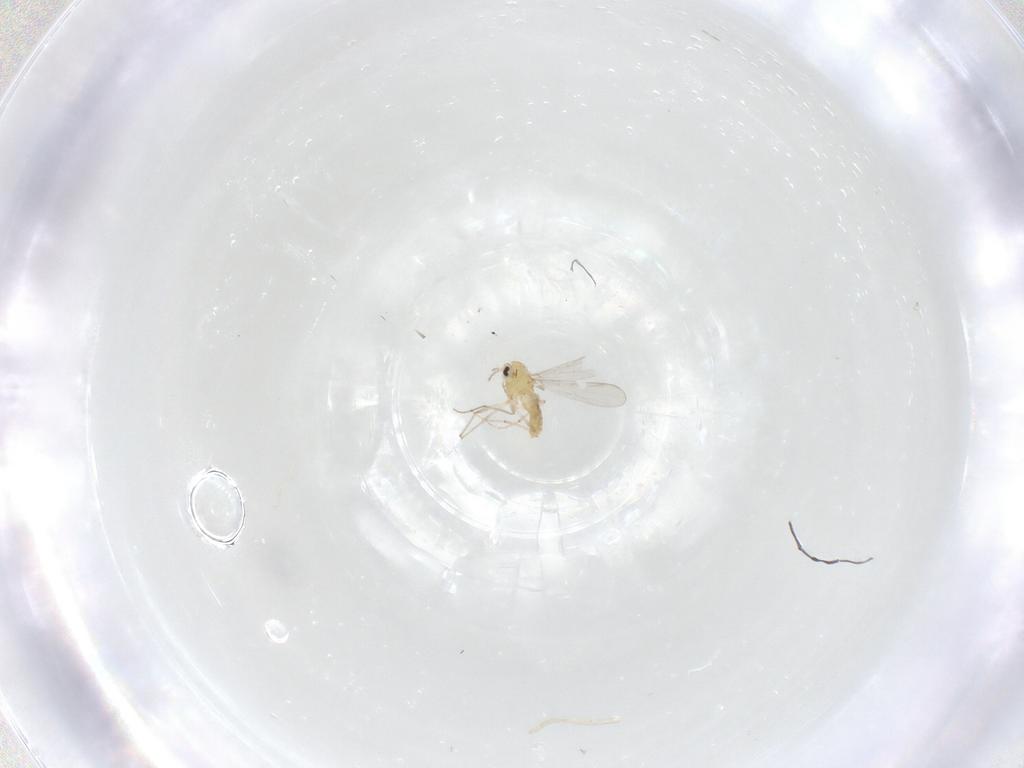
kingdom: Animalia
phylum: Arthropoda
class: Insecta
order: Diptera
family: Chironomidae
